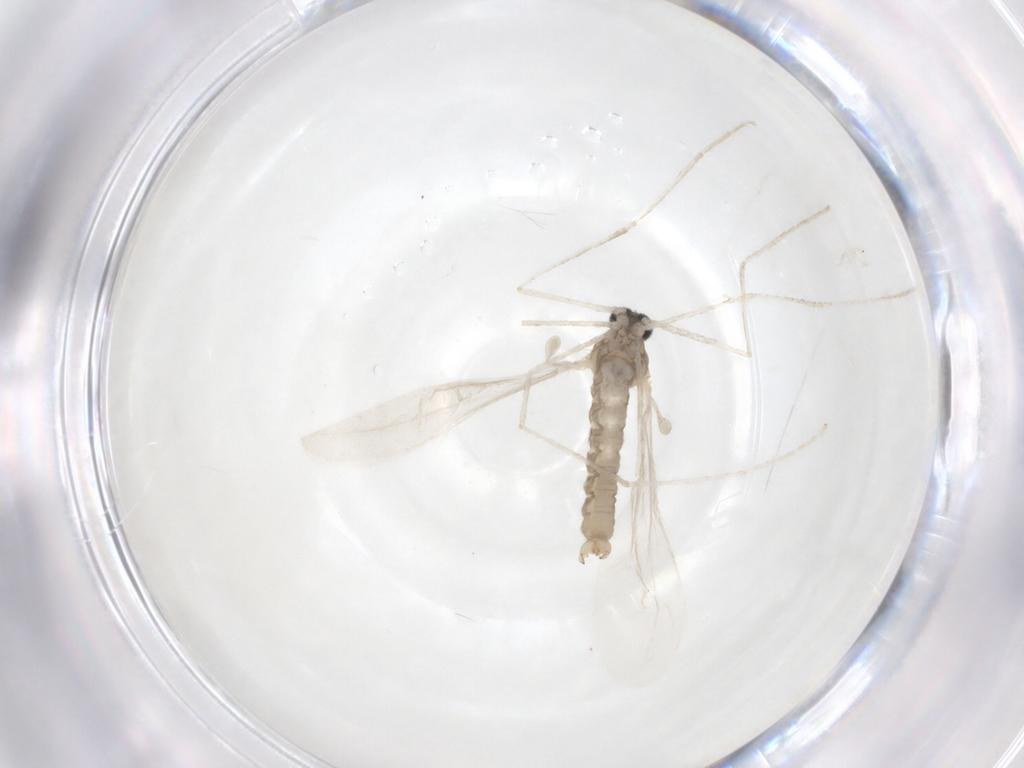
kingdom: Animalia
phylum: Arthropoda
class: Insecta
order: Diptera
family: Cecidomyiidae
